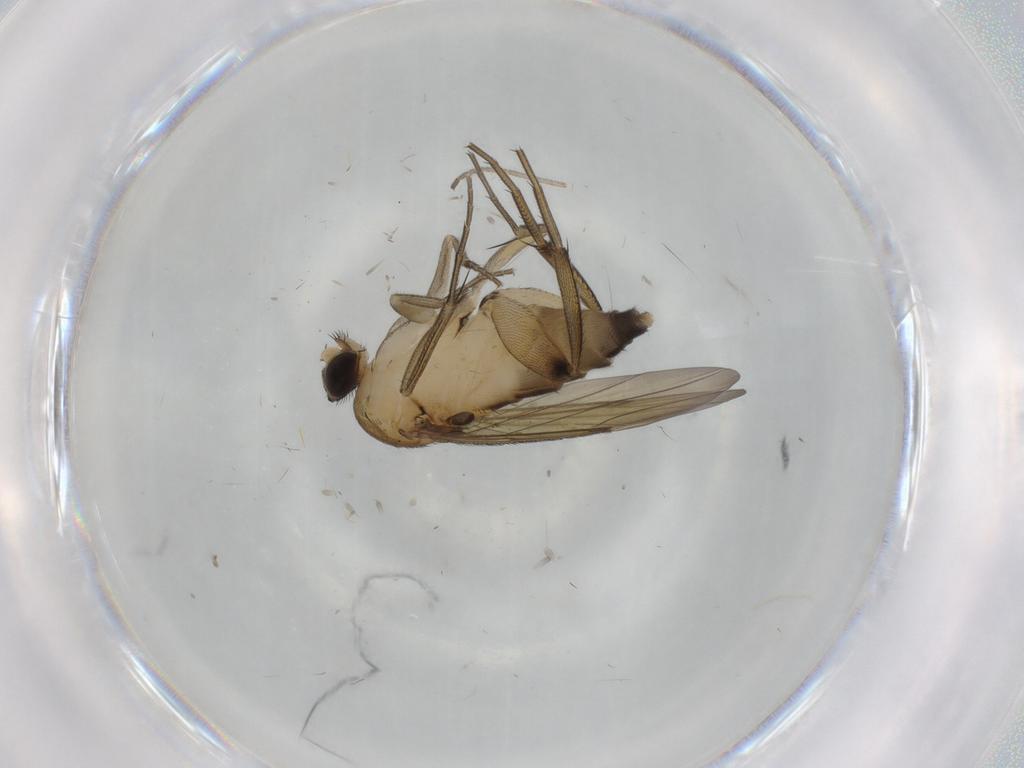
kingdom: Animalia
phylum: Arthropoda
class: Insecta
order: Diptera
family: Cecidomyiidae
